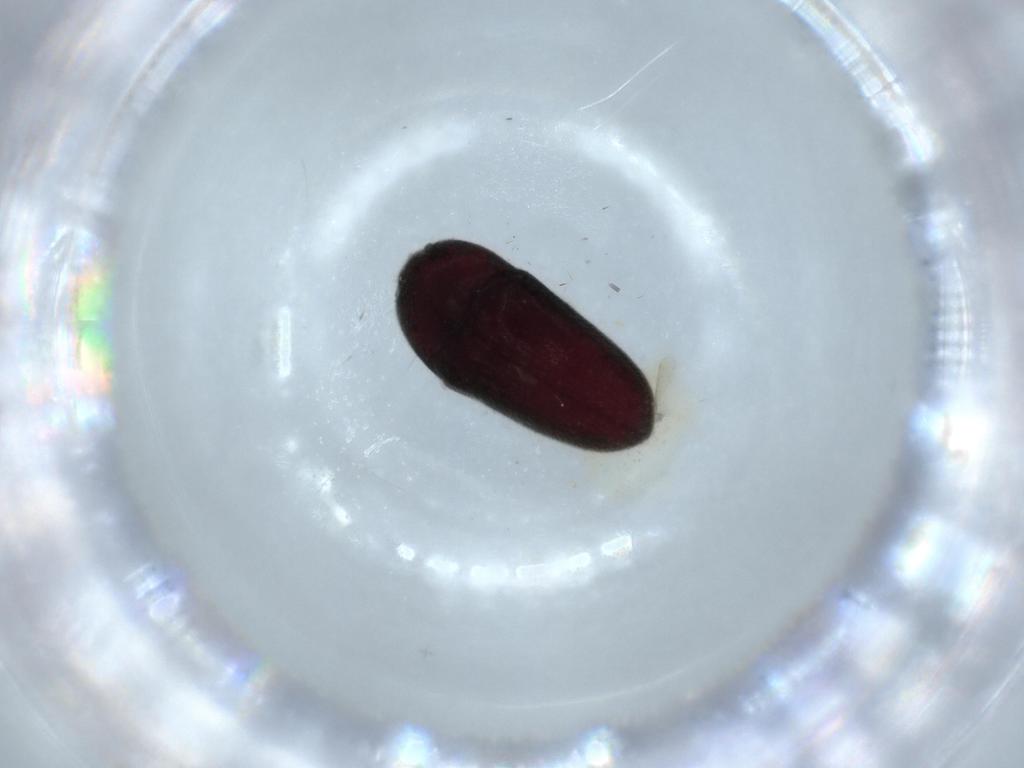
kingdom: Animalia
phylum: Arthropoda
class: Insecta
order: Coleoptera
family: Throscidae
